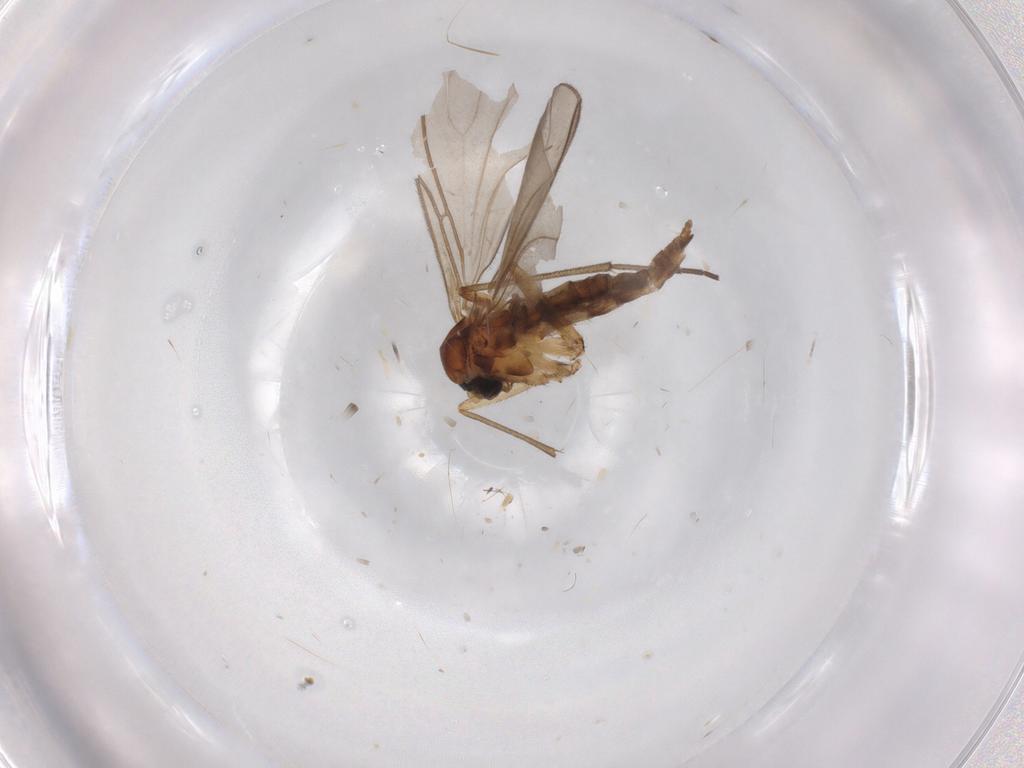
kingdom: Animalia
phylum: Arthropoda
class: Insecta
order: Diptera
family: Sciaridae
